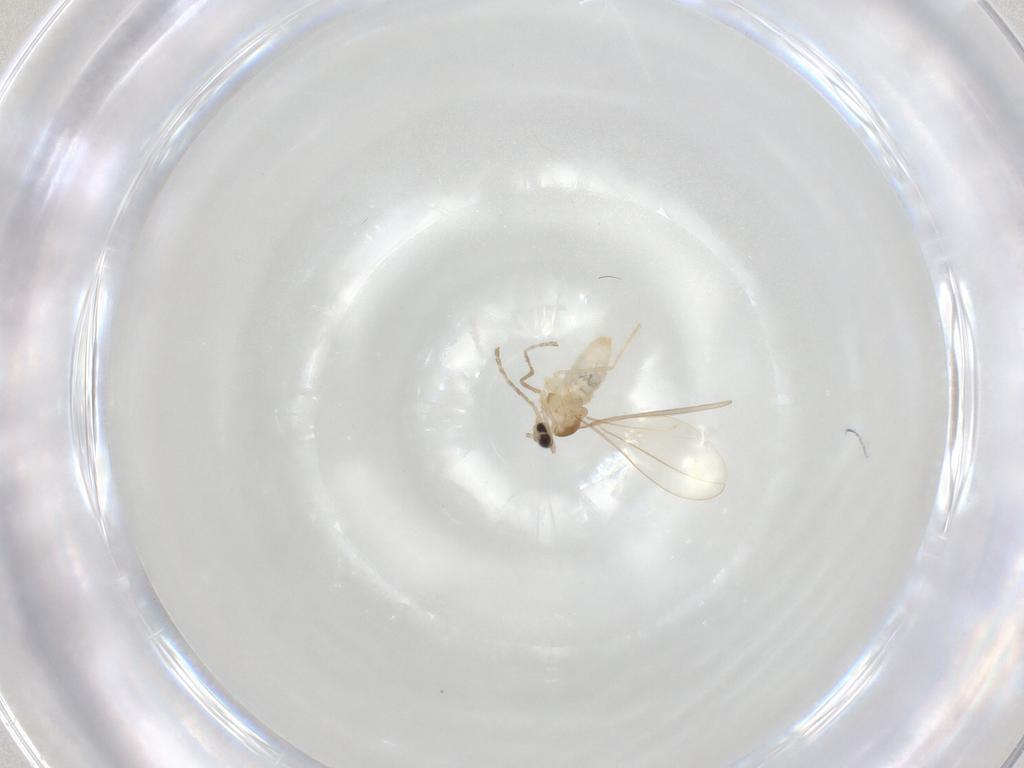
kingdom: Animalia
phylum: Arthropoda
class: Insecta
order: Diptera
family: Cecidomyiidae
